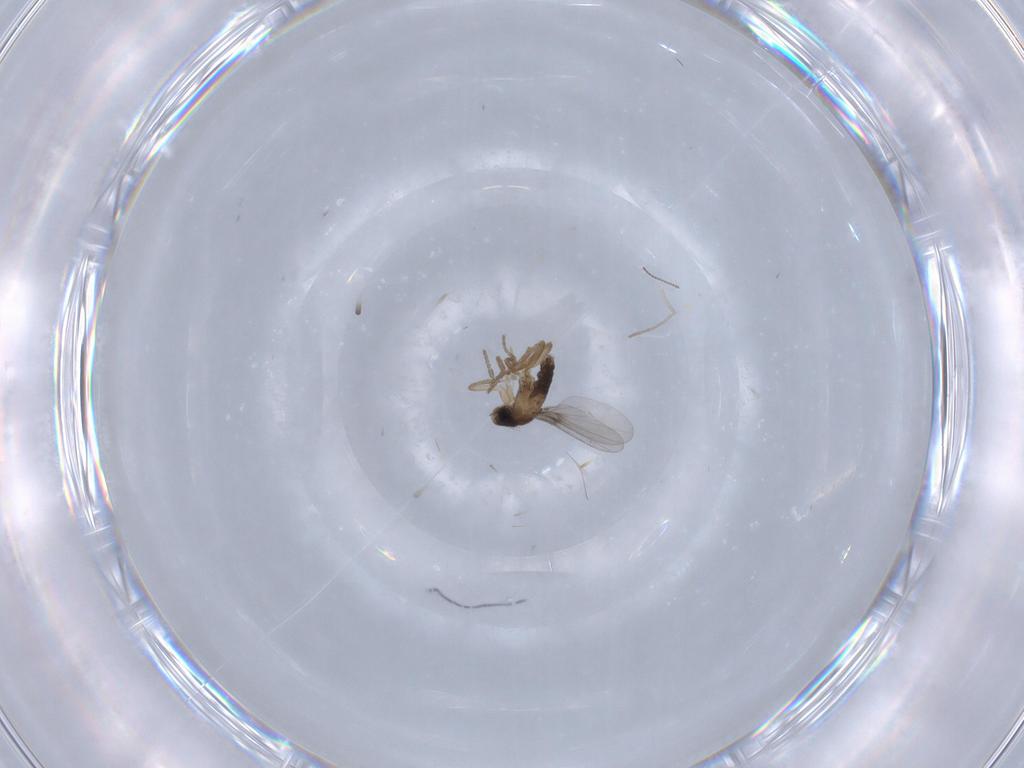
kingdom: Animalia
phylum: Arthropoda
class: Insecta
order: Diptera
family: Phoridae
